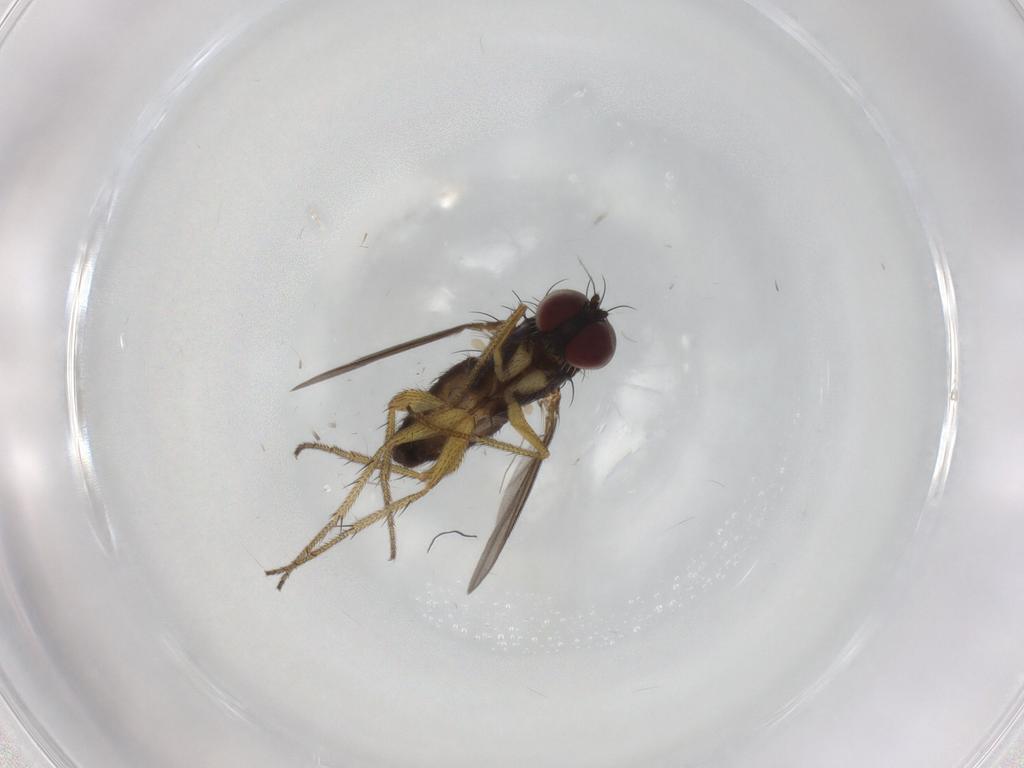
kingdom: Animalia
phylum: Arthropoda
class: Insecta
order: Diptera
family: Dolichopodidae
